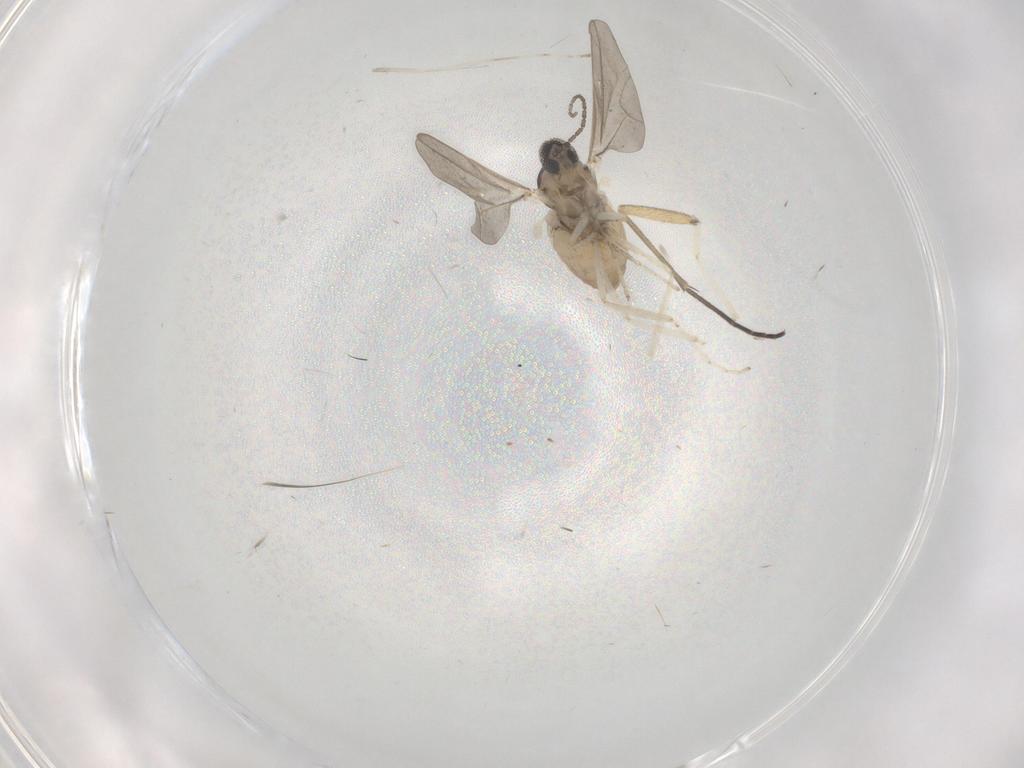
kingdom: Animalia
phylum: Arthropoda
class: Insecta
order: Diptera
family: Cecidomyiidae
